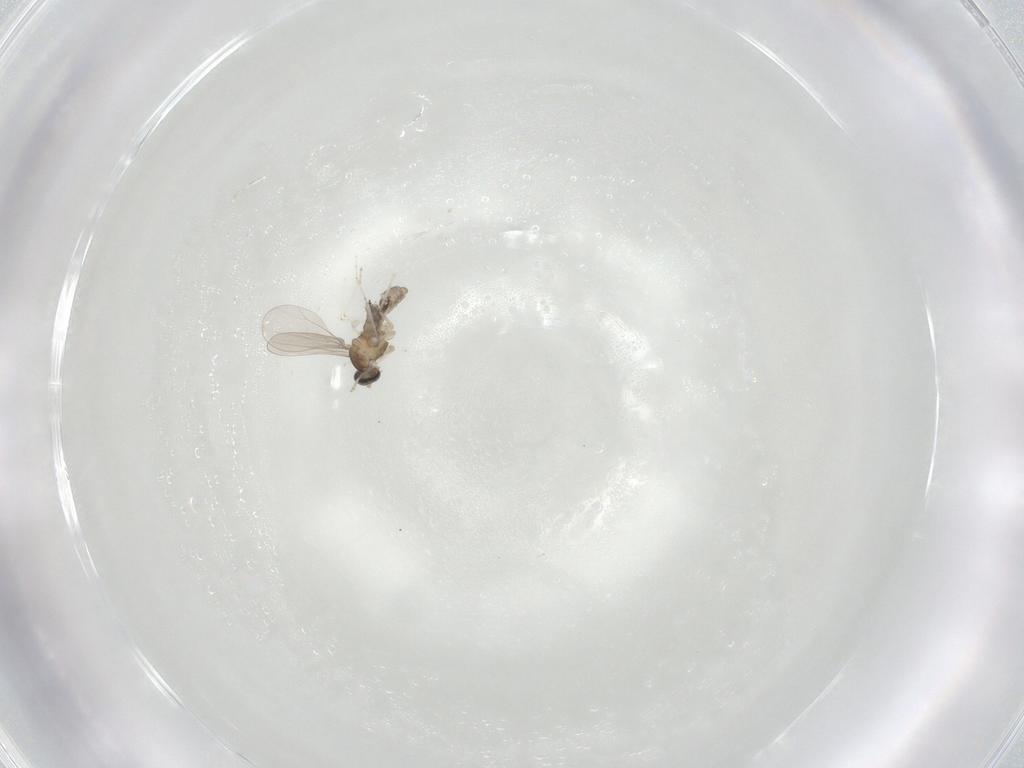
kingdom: Animalia
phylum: Arthropoda
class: Insecta
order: Diptera
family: Cecidomyiidae
